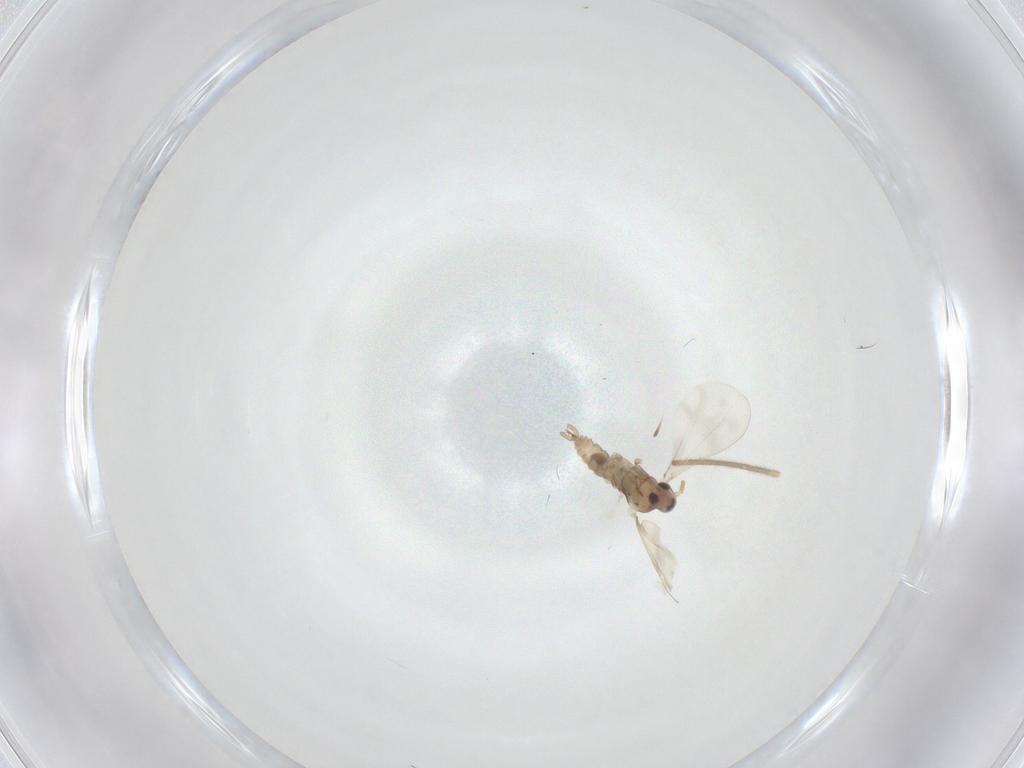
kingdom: Animalia
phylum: Arthropoda
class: Insecta
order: Diptera
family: Cecidomyiidae
